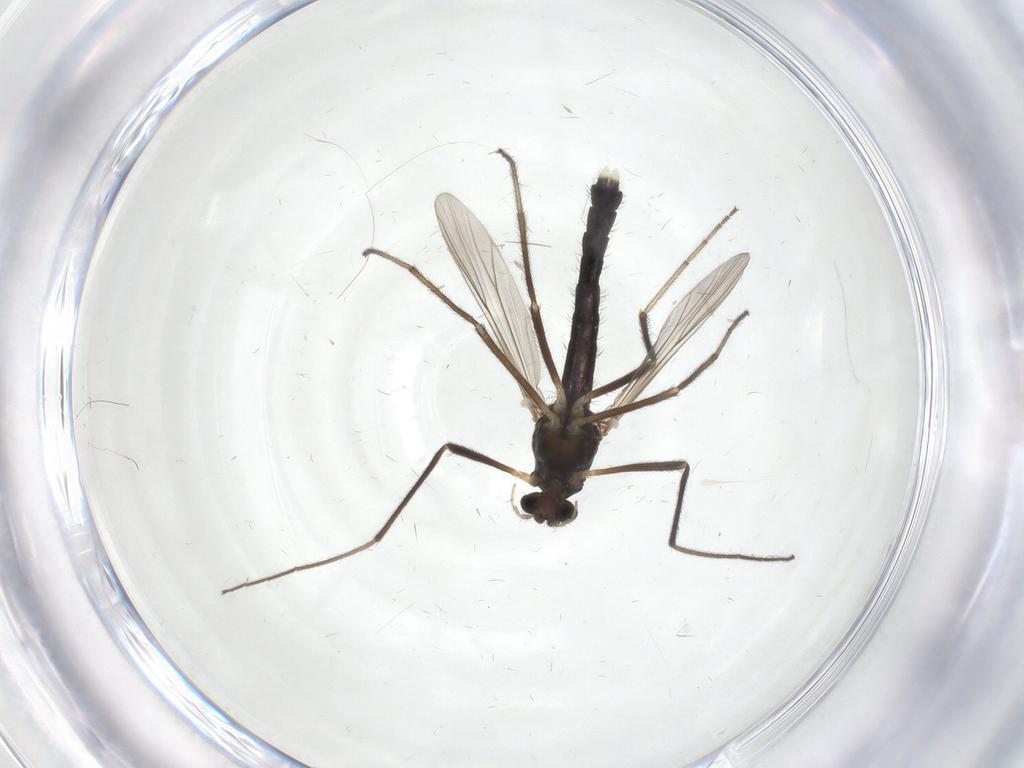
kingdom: Animalia
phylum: Arthropoda
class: Insecta
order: Diptera
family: Chironomidae
